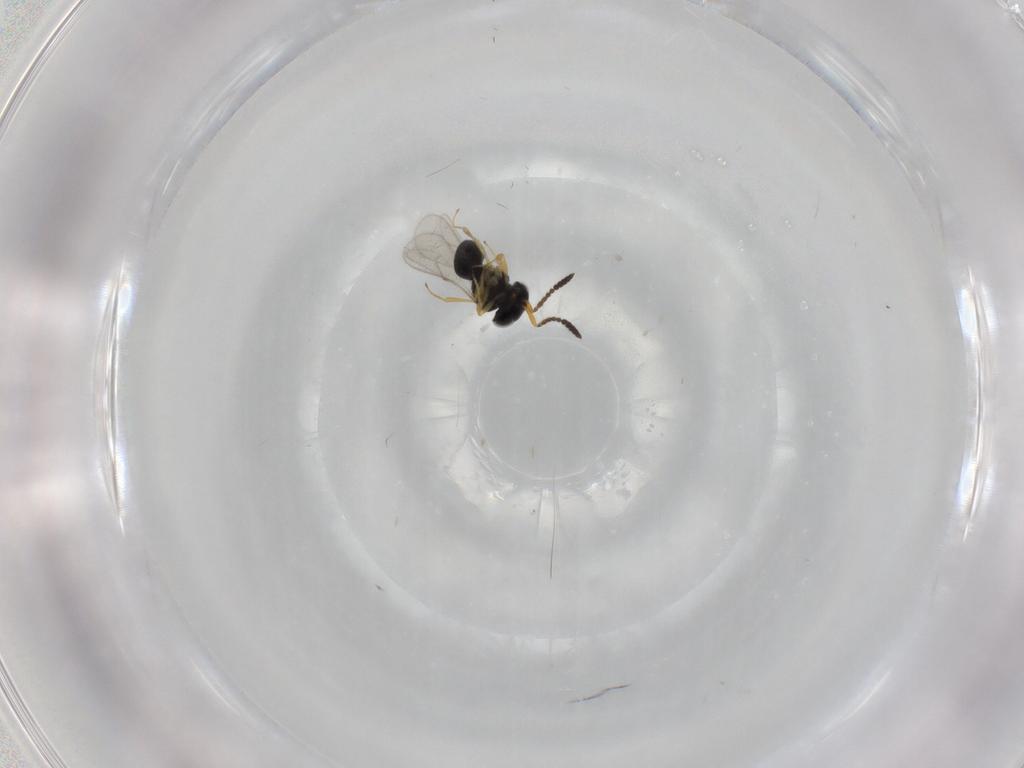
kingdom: Animalia
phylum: Arthropoda
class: Insecta
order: Hymenoptera
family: Scelionidae
